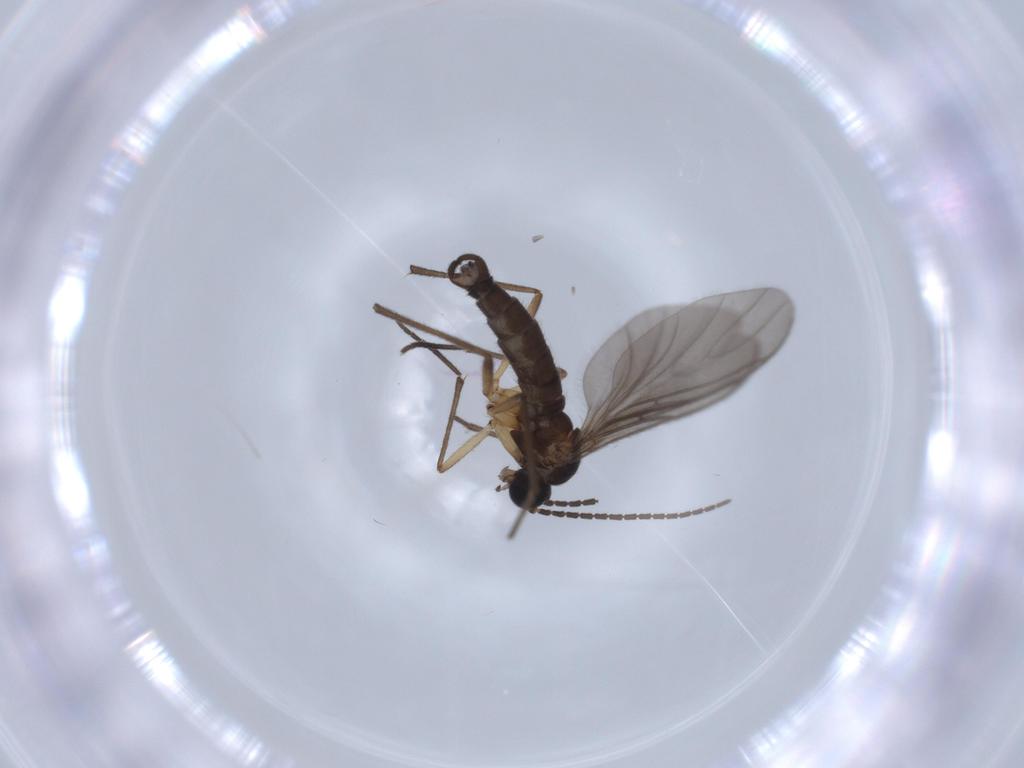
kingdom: Animalia
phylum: Arthropoda
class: Insecta
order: Diptera
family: Sciaridae
